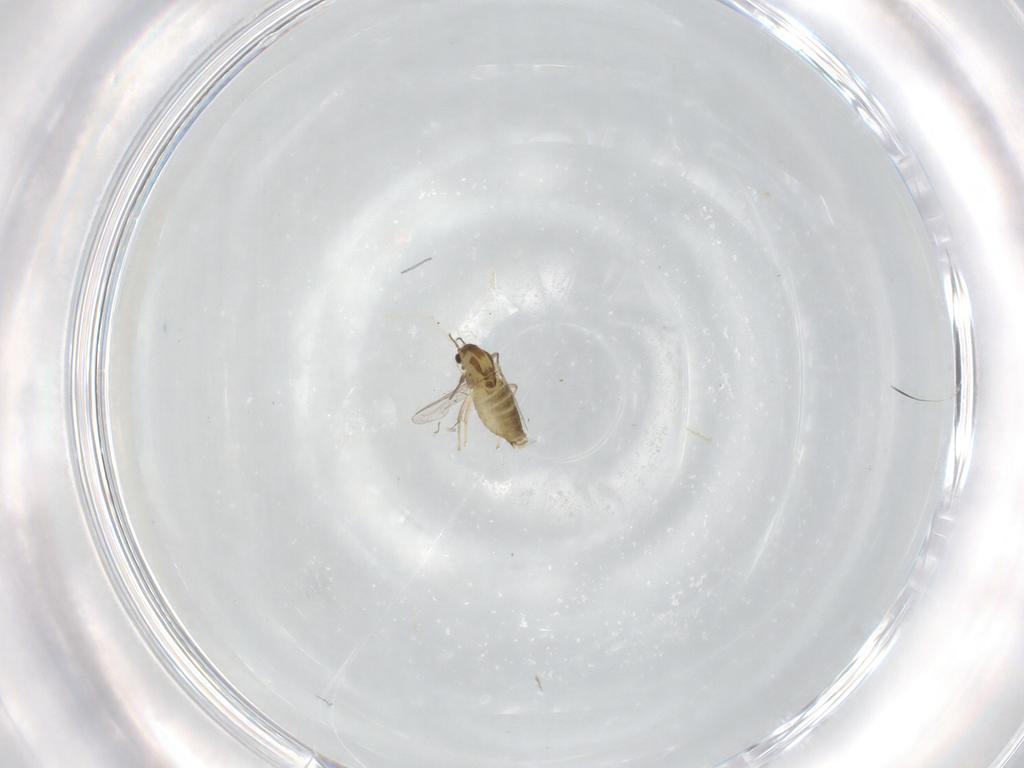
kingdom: Animalia
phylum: Arthropoda
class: Insecta
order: Diptera
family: Chironomidae
